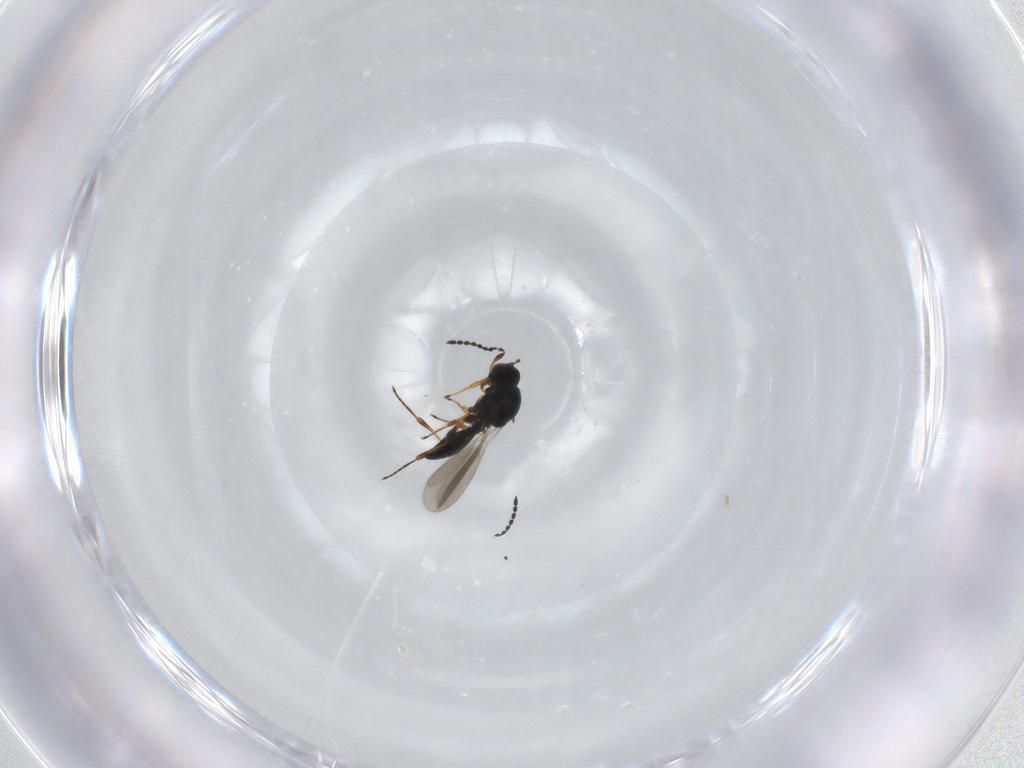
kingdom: Animalia
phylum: Arthropoda
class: Insecta
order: Hymenoptera
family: Platygastridae
